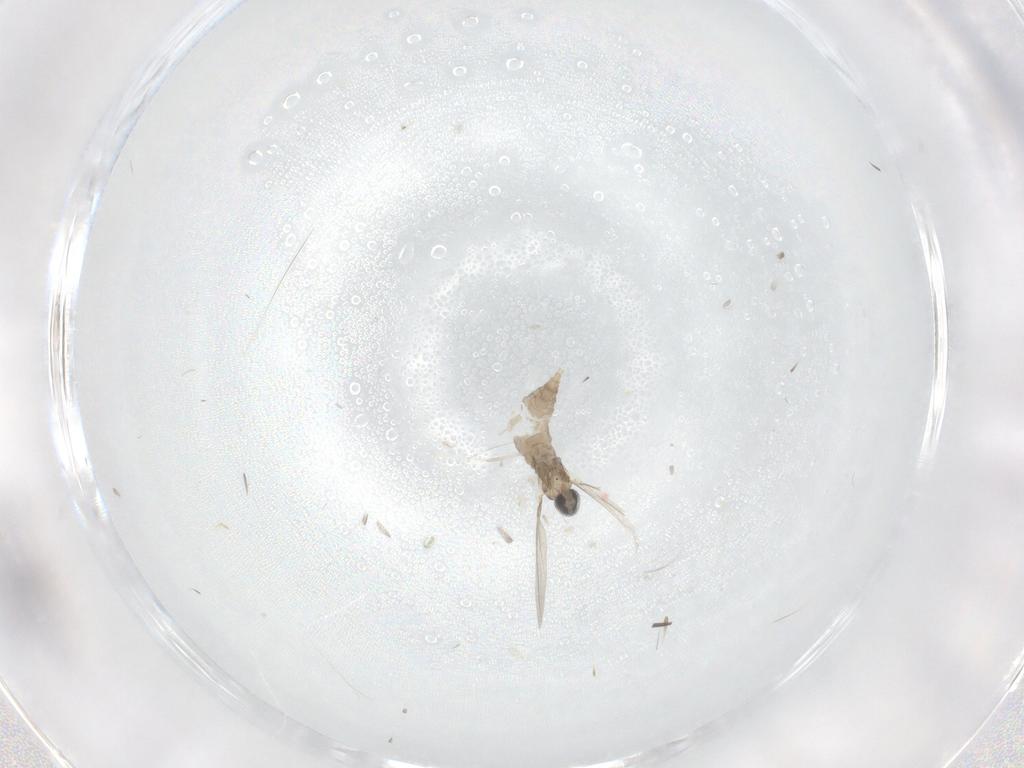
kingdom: Animalia
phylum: Arthropoda
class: Insecta
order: Diptera
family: Cecidomyiidae
